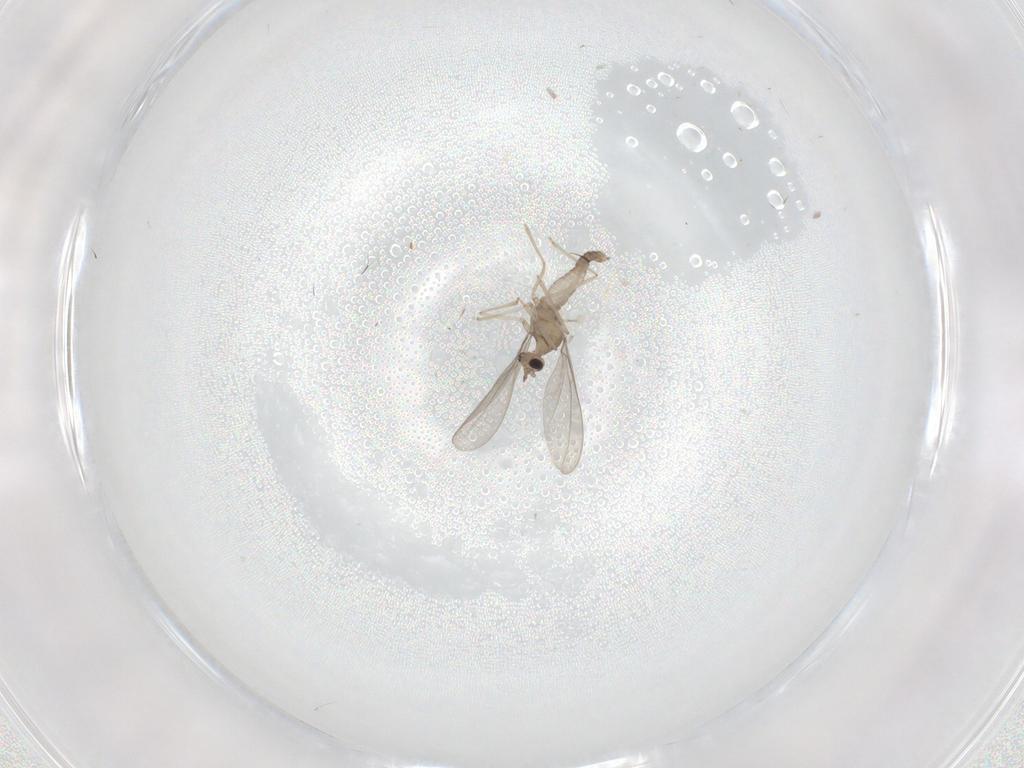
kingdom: Animalia
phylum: Arthropoda
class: Insecta
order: Diptera
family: Cecidomyiidae
